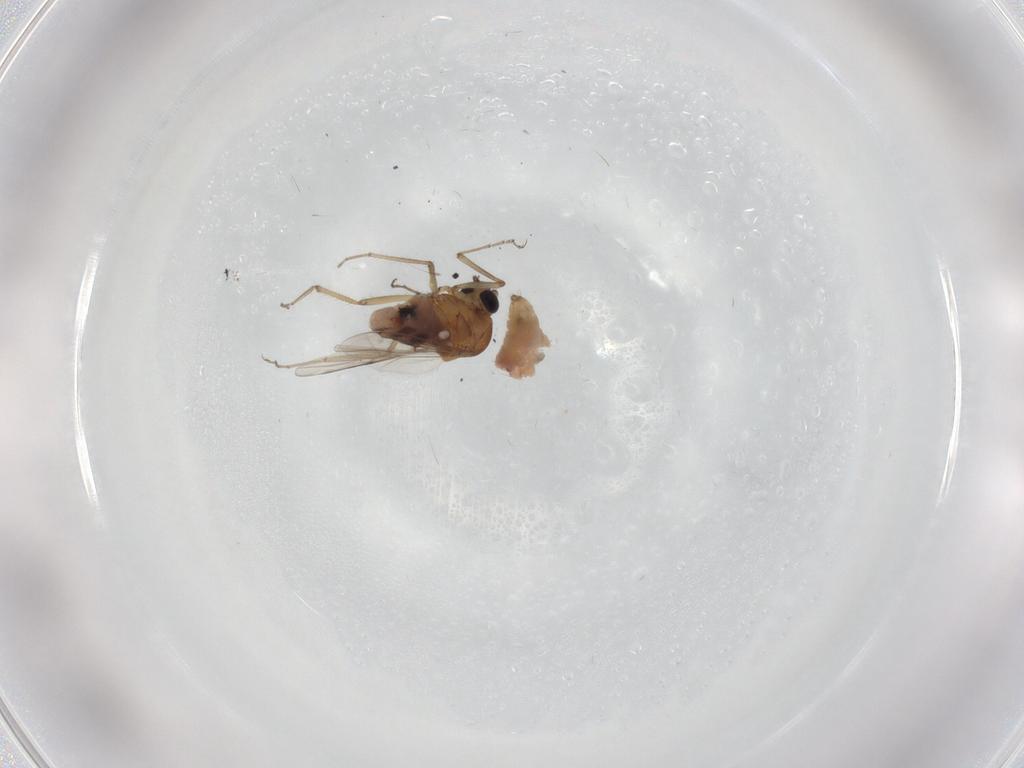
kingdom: Animalia
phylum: Arthropoda
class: Insecta
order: Diptera
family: Ceratopogonidae
